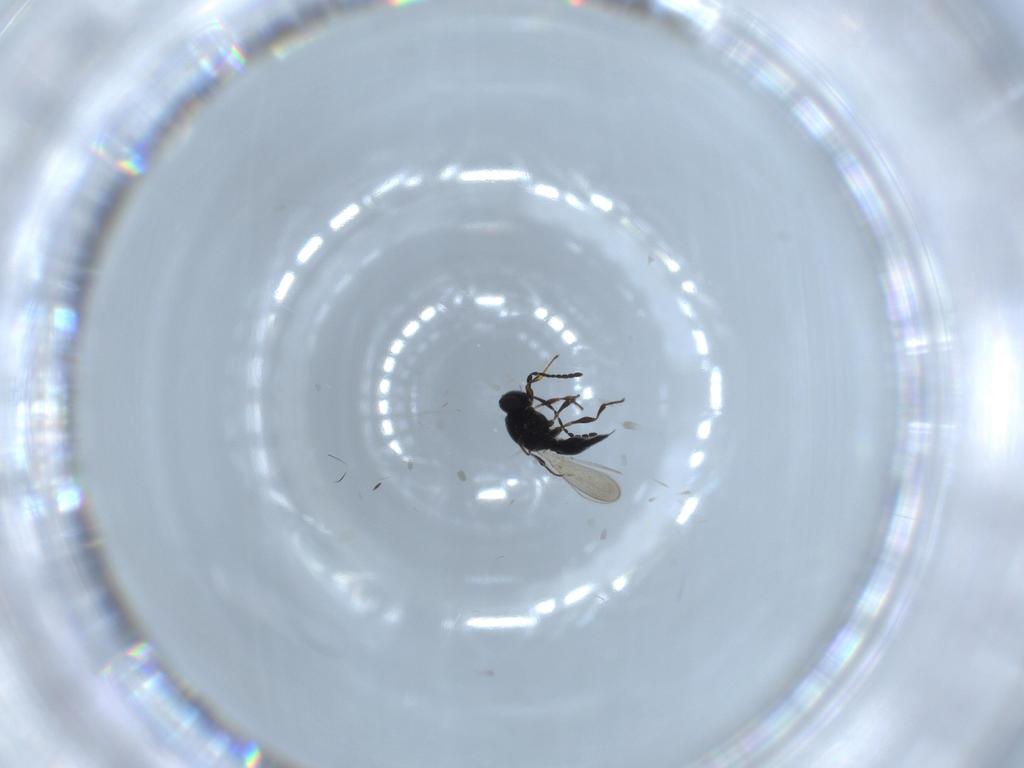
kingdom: Animalia
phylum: Arthropoda
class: Insecta
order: Hymenoptera
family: Platygastridae
